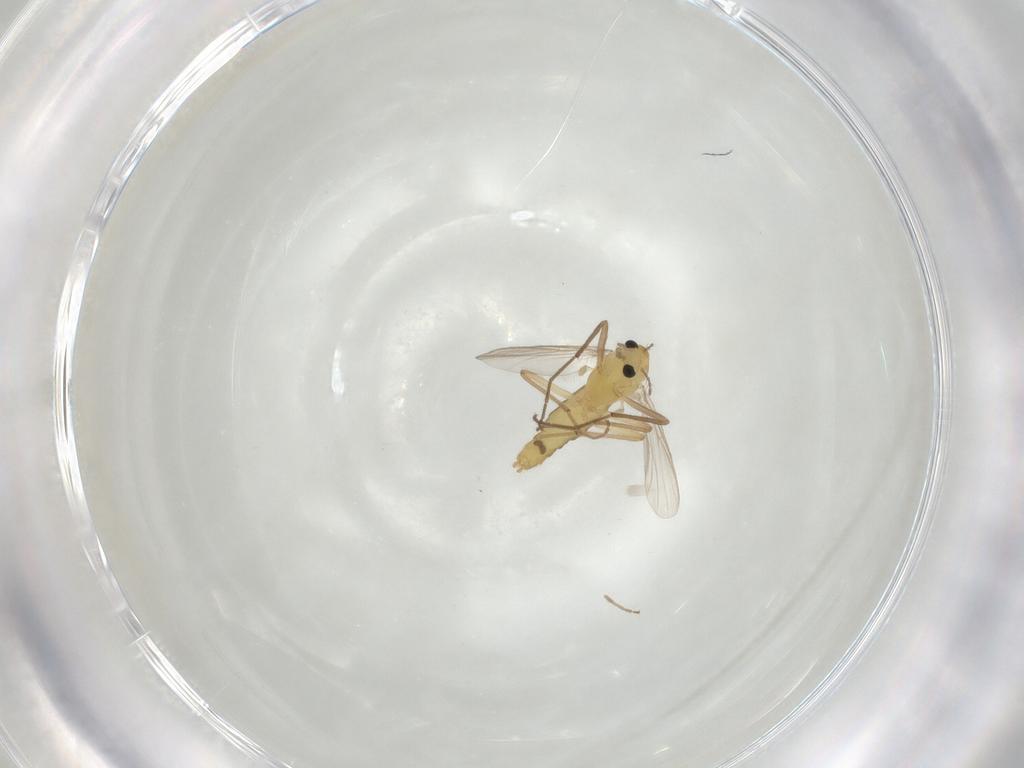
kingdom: Animalia
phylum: Arthropoda
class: Insecta
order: Diptera
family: Chironomidae
